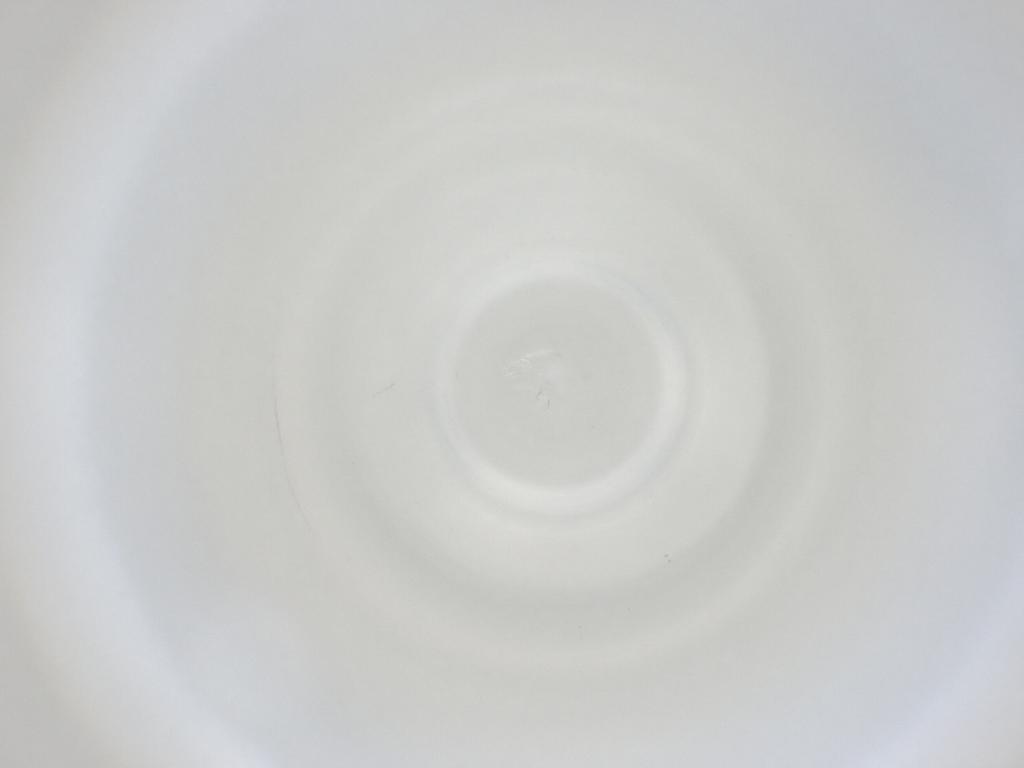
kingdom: Animalia
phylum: Arthropoda
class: Insecta
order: Diptera
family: Cecidomyiidae
